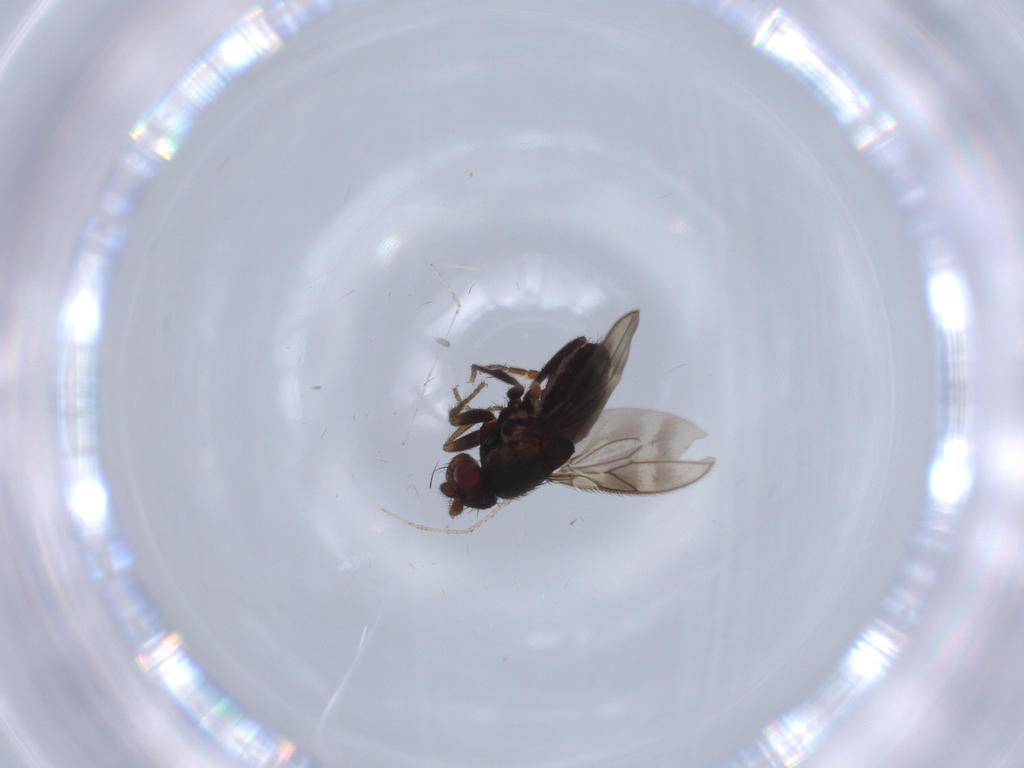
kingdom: Animalia
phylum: Arthropoda
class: Insecta
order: Diptera
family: Sphaeroceridae
